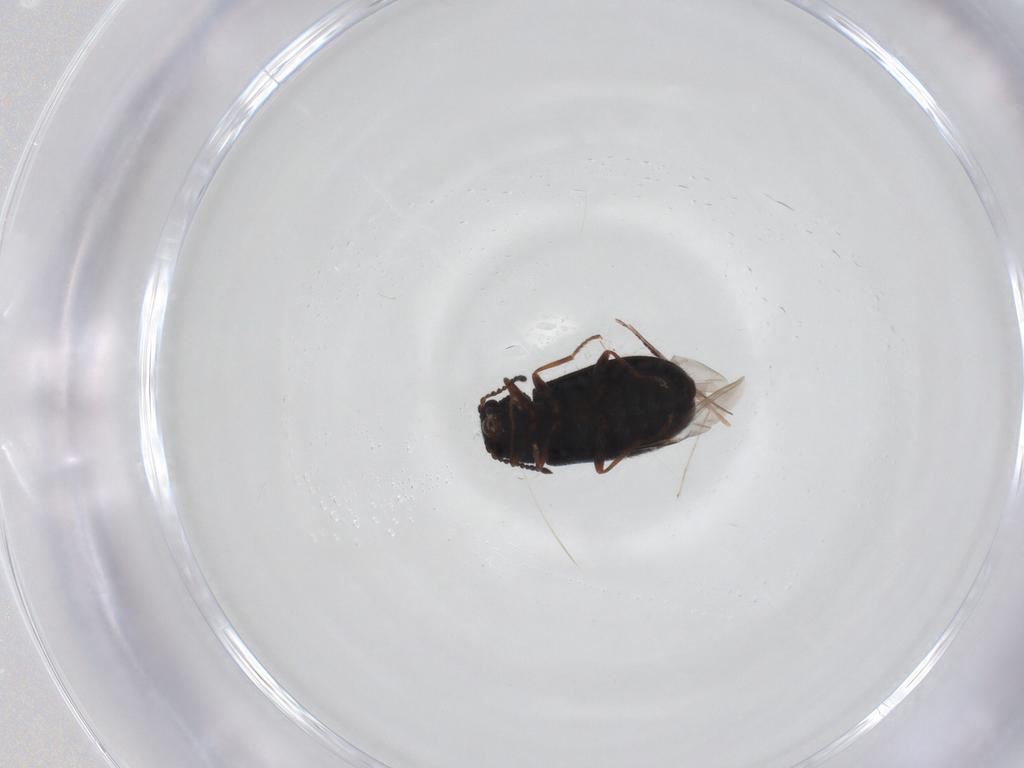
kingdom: Animalia
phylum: Arthropoda
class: Insecta
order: Coleoptera
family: Melyridae
